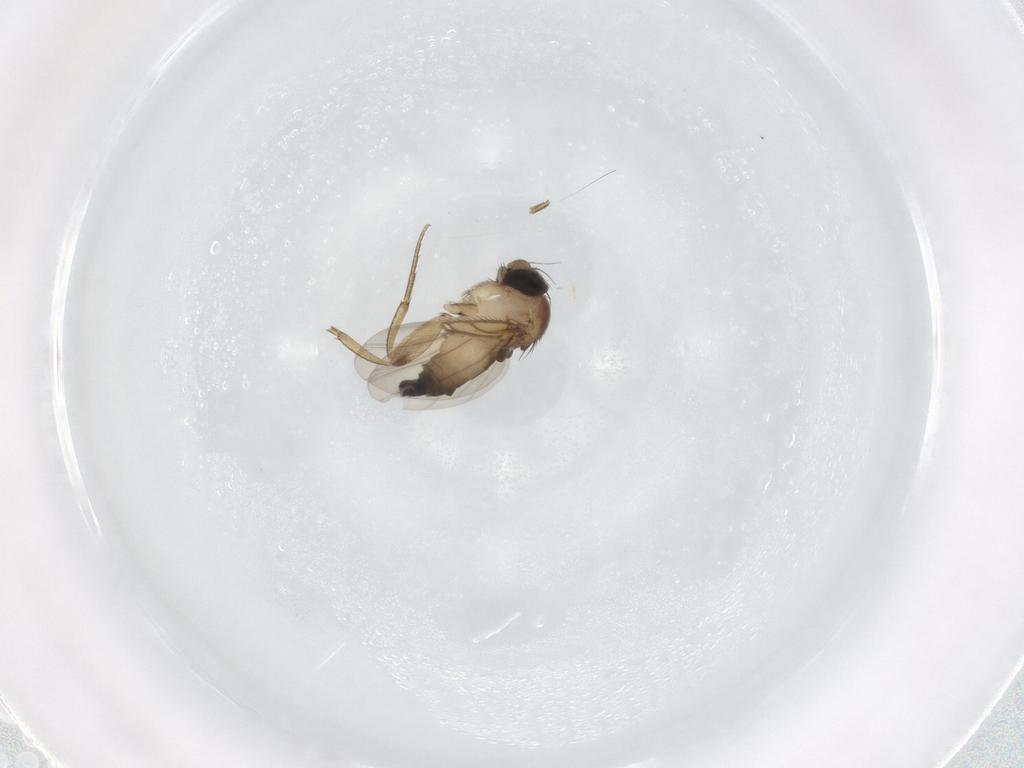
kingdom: Animalia
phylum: Arthropoda
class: Insecta
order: Diptera
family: Phoridae
